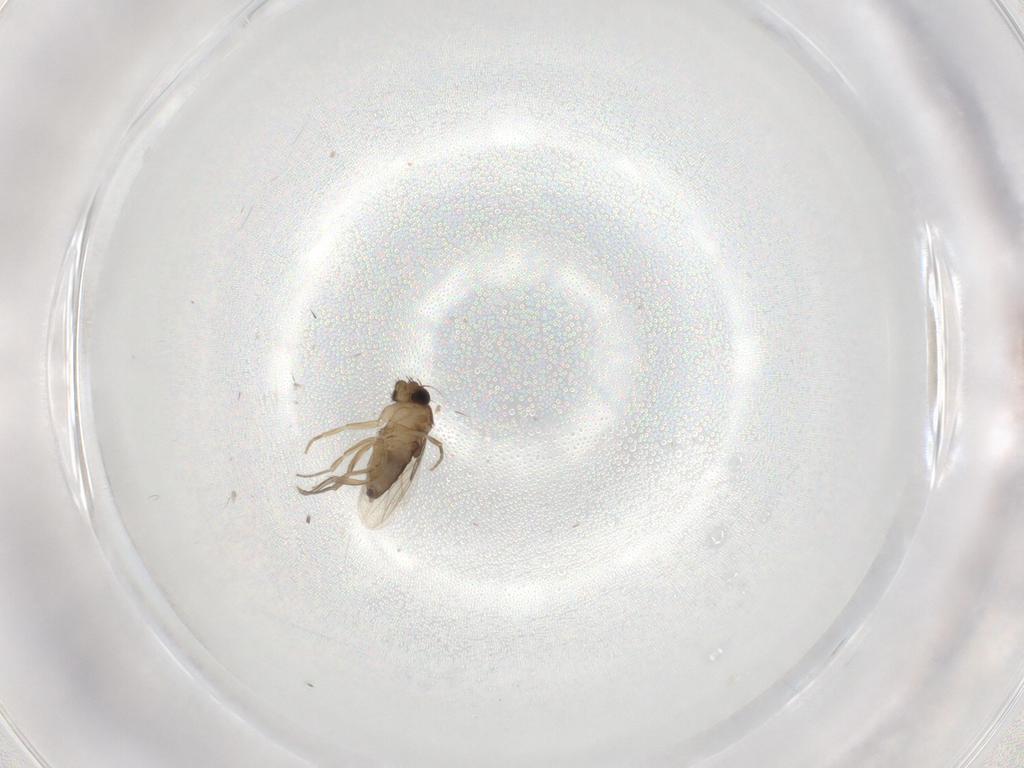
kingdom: Animalia
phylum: Arthropoda
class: Insecta
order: Diptera
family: Phoridae
